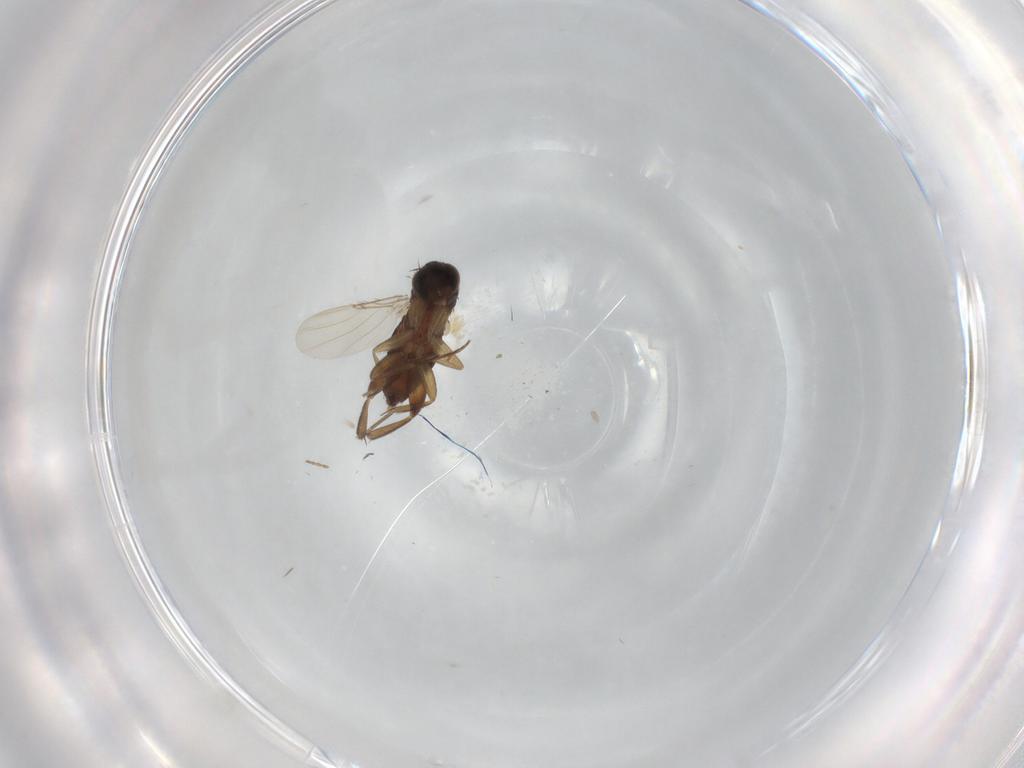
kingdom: Animalia
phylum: Arthropoda
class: Insecta
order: Diptera
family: Phoridae
